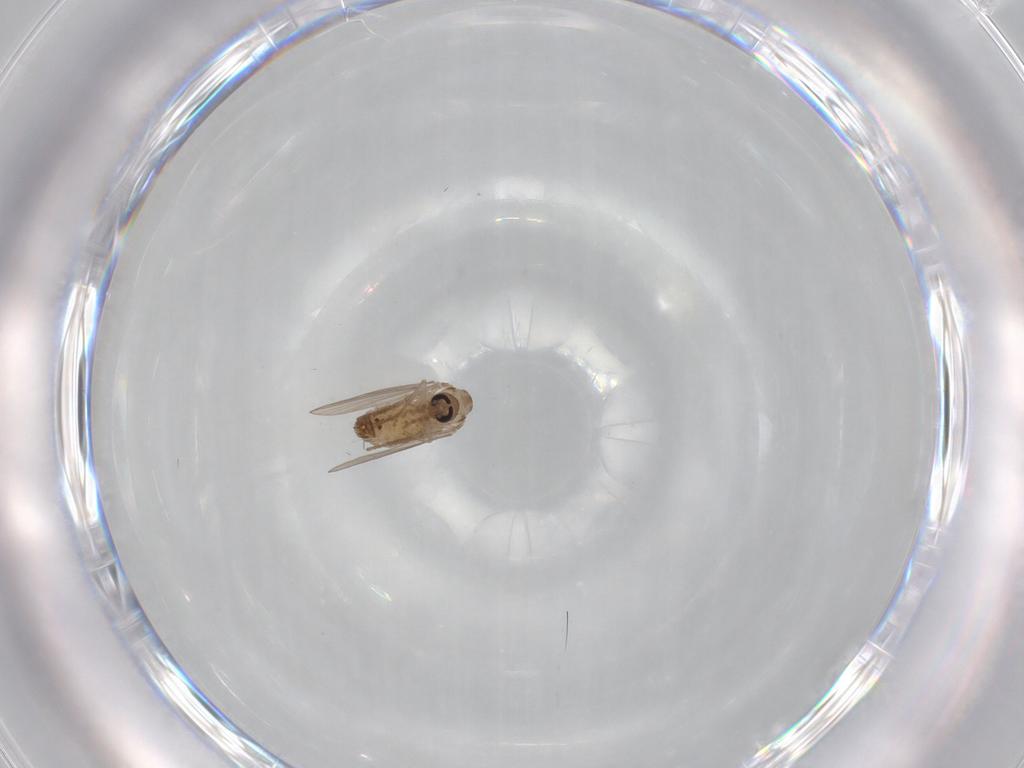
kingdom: Animalia
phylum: Arthropoda
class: Insecta
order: Diptera
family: Psychodidae
